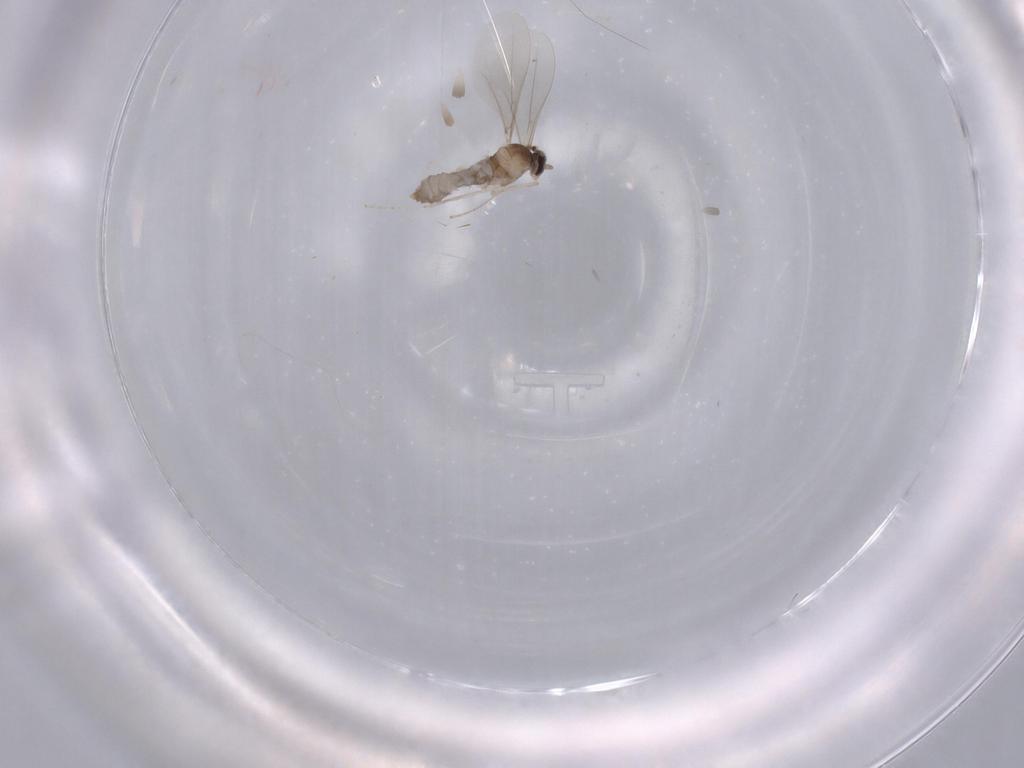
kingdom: Animalia
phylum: Arthropoda
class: Insecta
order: Diptera
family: Cecidomyiidae
